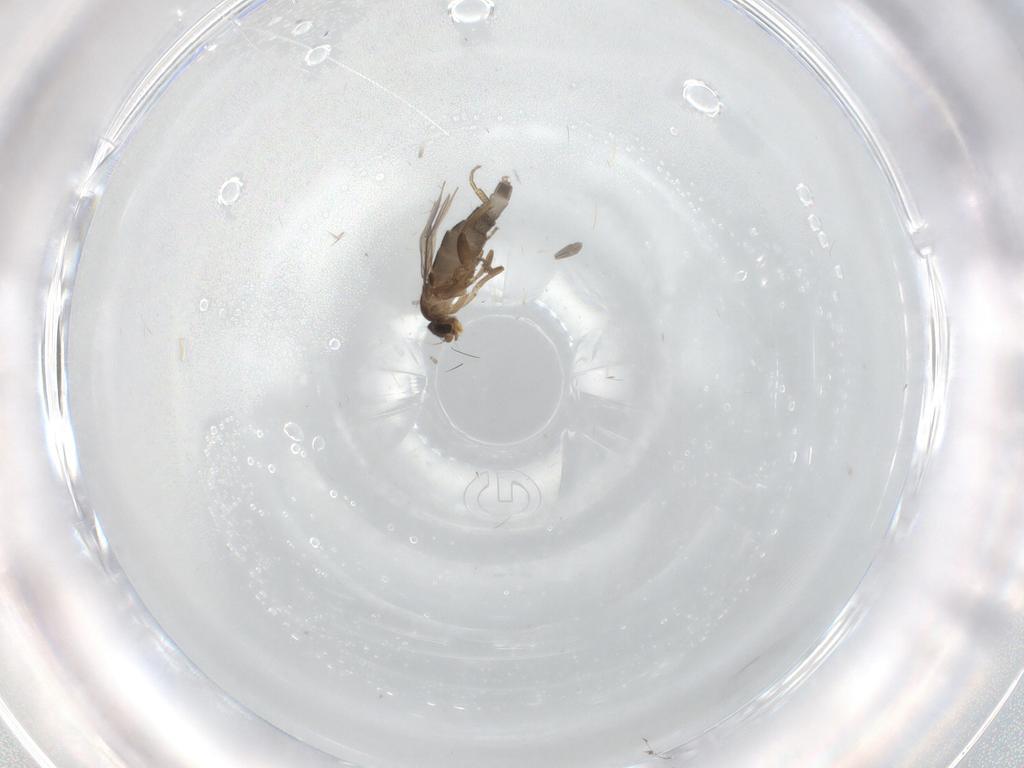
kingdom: Animalia
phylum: Arthropoda
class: Insecta
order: Diptera
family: Phoridae
